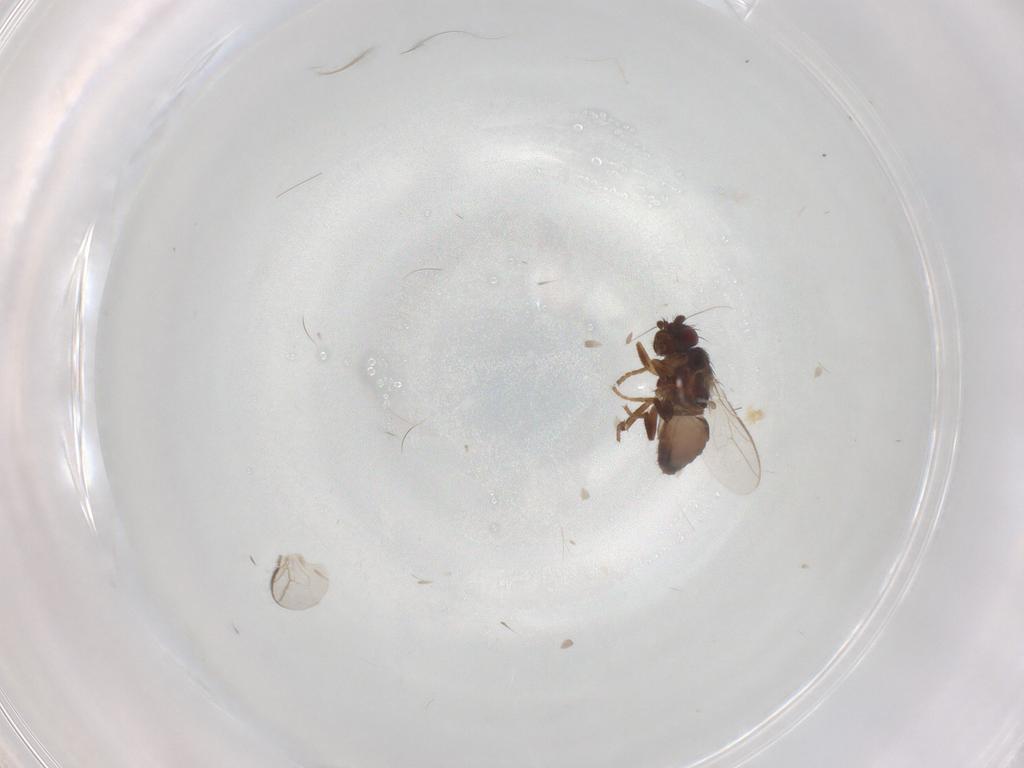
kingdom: Animalia
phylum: Arthropoda
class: Insecta
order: Diptera
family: Sphaeroceridae
